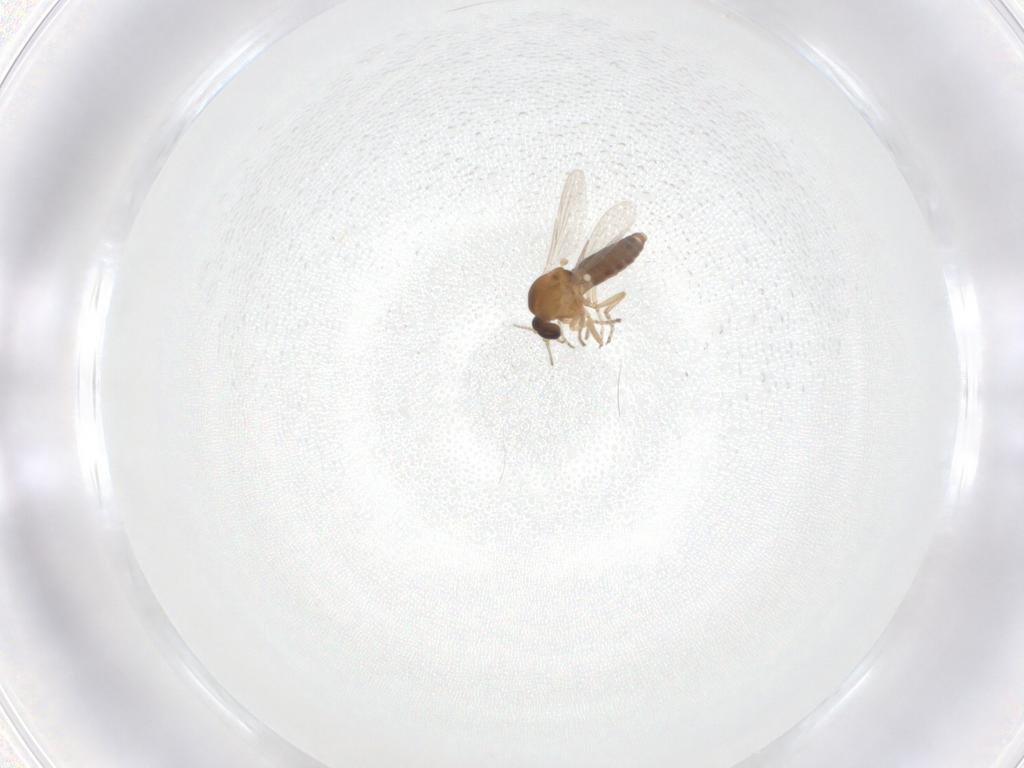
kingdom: Animalia
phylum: Arthropoda
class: Insecta
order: Diptera
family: Ceratopogonidae
